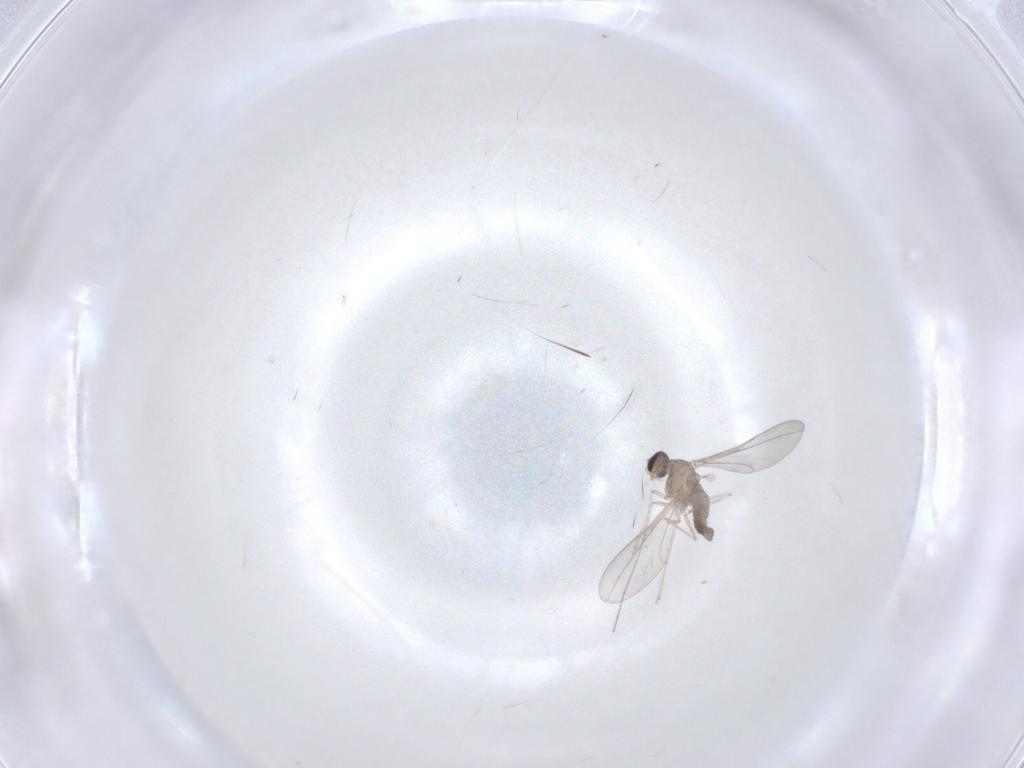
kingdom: Animalia
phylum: Arthropoda
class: Insecta
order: Diptera
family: Cecidomyiidae
